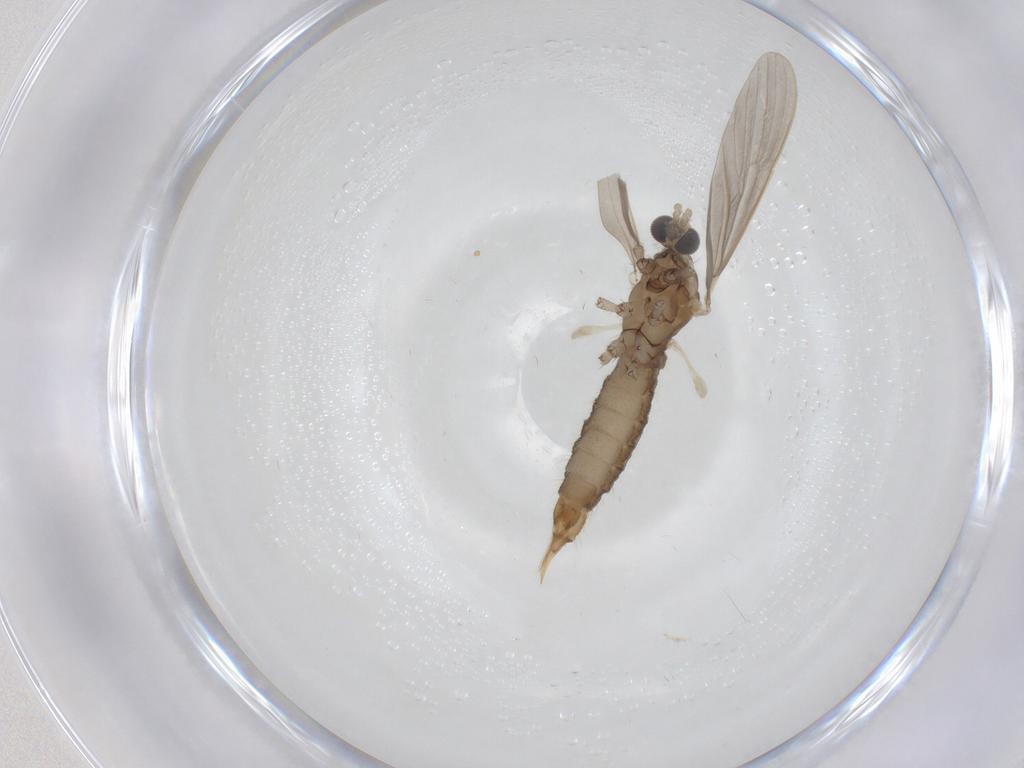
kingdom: Animalia
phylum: Arthropoda
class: Insecta
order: Diptera
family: Limoniidae
